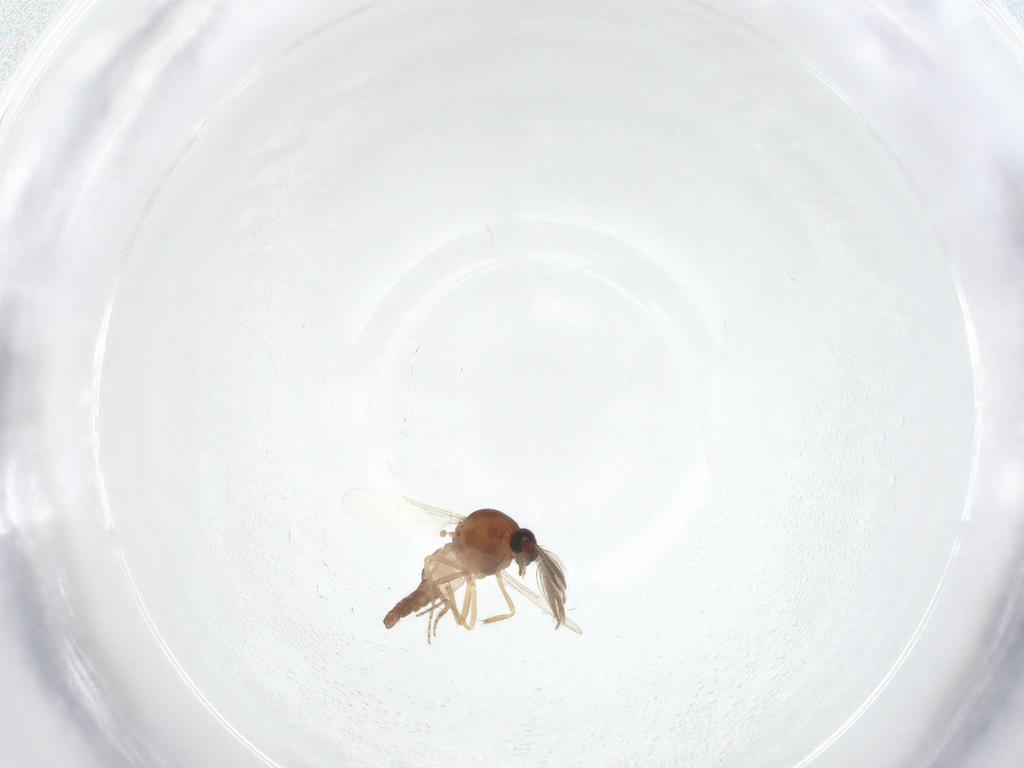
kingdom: Animalia
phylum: Arthropoda
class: Insecta
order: Diptera
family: Ceratopogonidae
